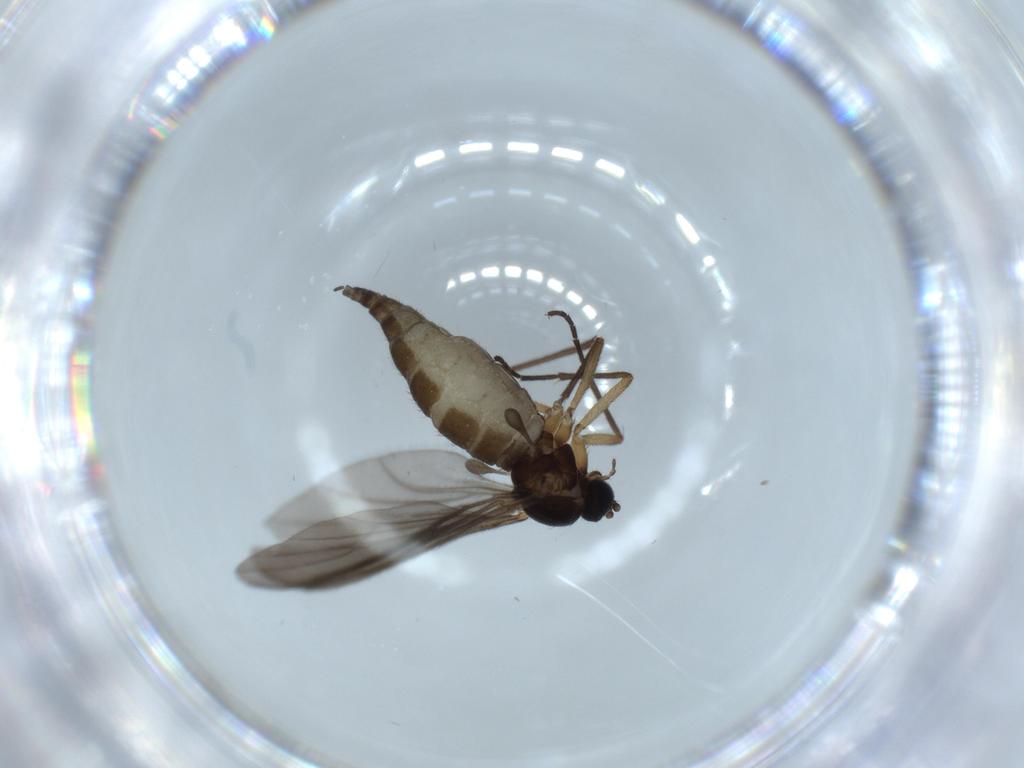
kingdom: Animalia
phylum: Arthropoda
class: Insecta
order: Diptera
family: Sciaridae
